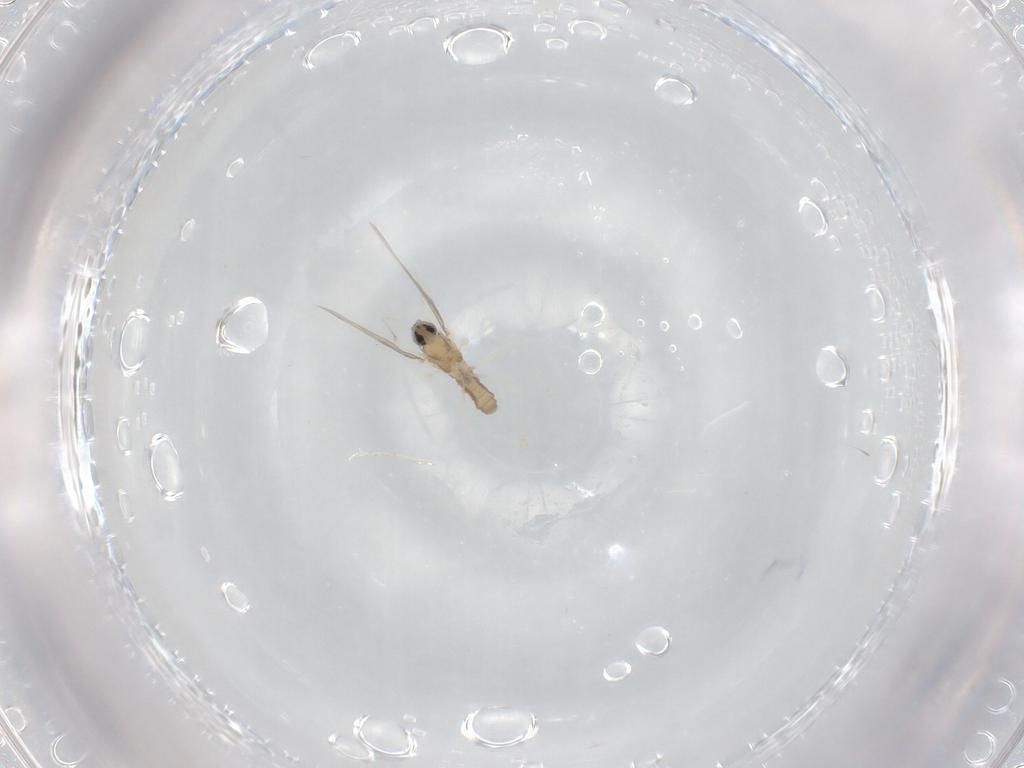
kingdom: Animalia
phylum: Arthropoda
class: Insecta
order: Diptera
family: Cecidomyiidae
